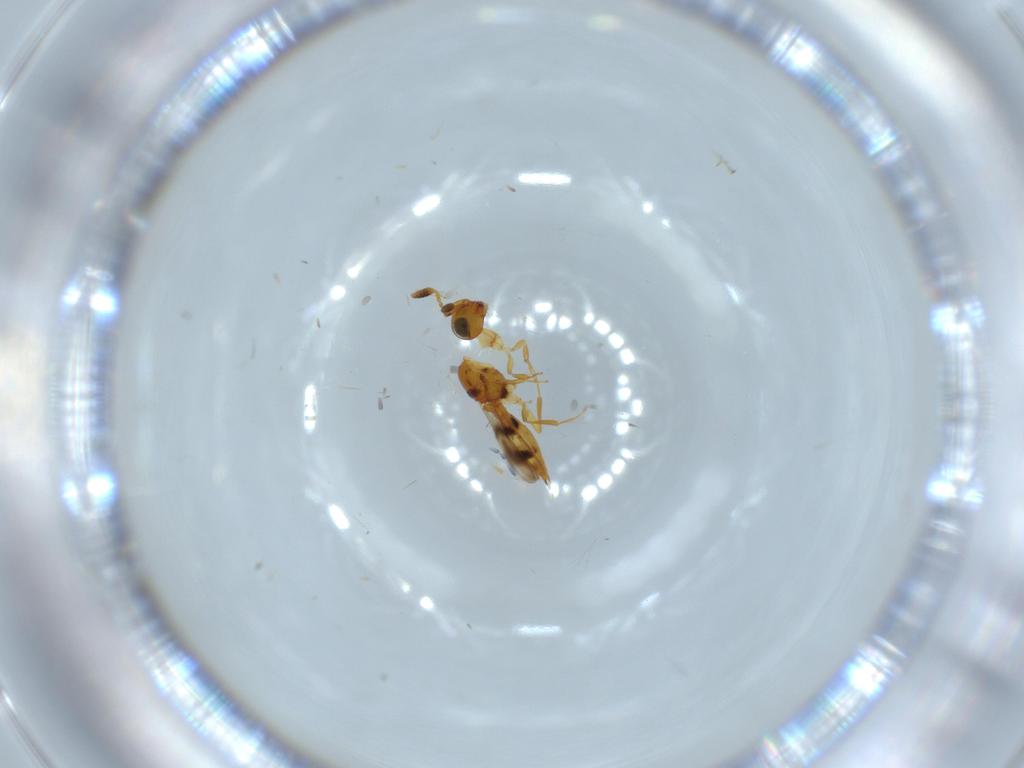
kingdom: Animalia
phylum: Arthropoda
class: Insecta
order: Hymenoptera
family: Scelionidae
